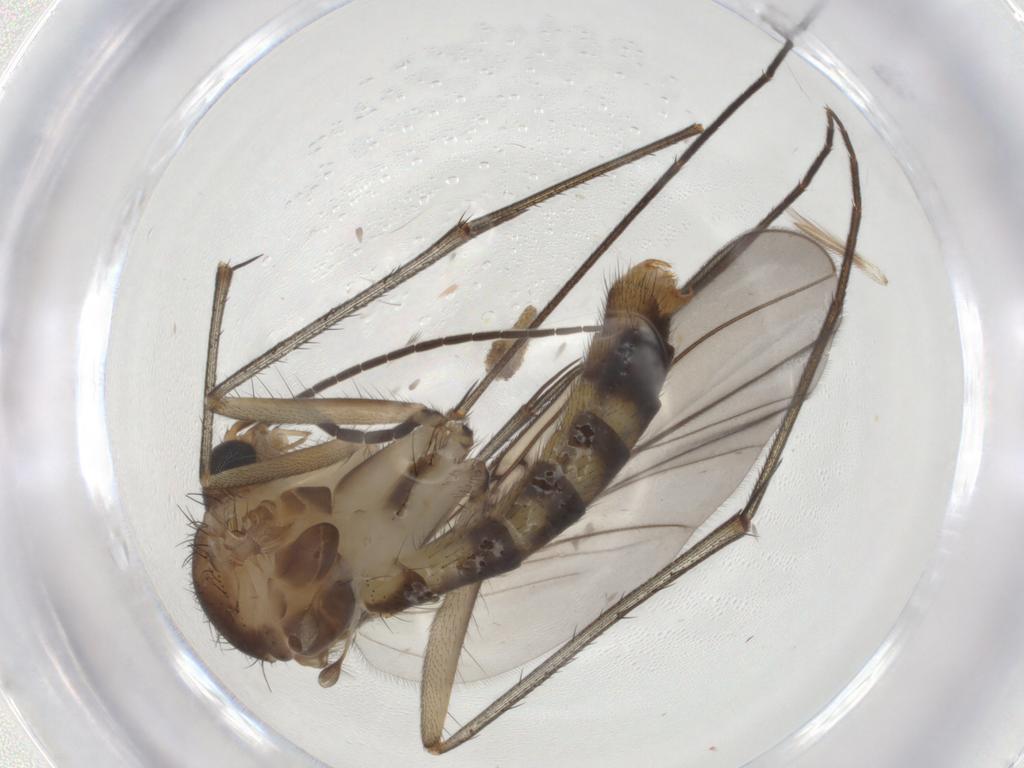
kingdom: Animalia
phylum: Arthropoda
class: Insecta
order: Diptera
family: Mycetophilidae
